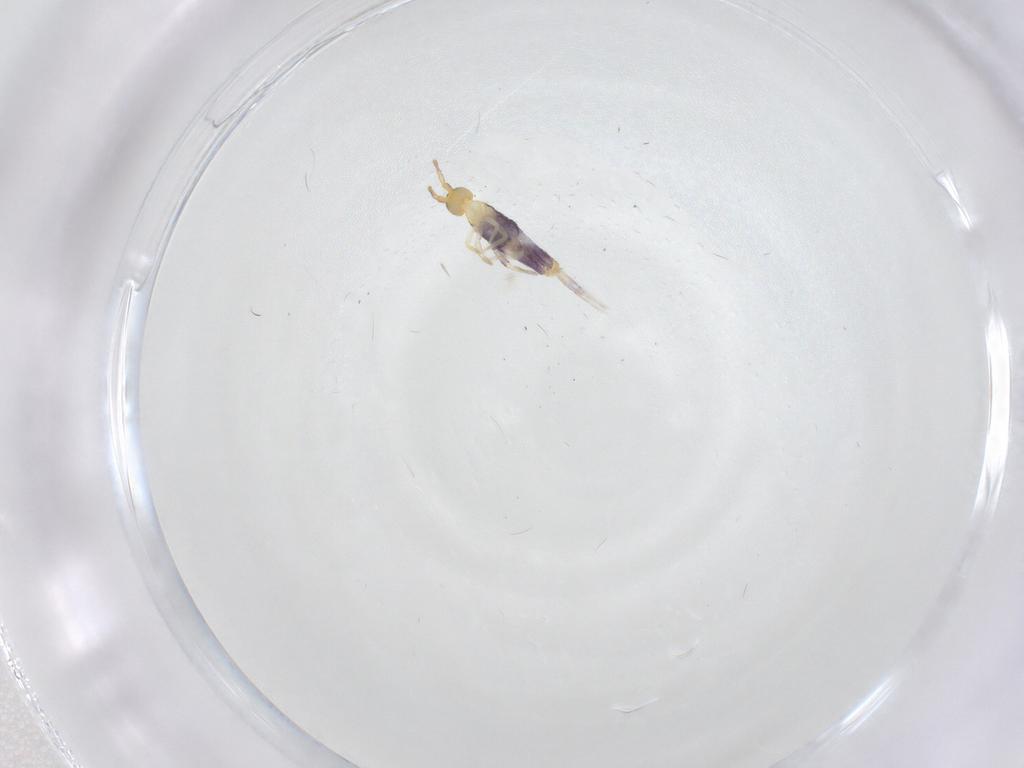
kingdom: Animalia
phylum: Arthropoda
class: Collembola
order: Entomobryomorpha
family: Entomobryidae
